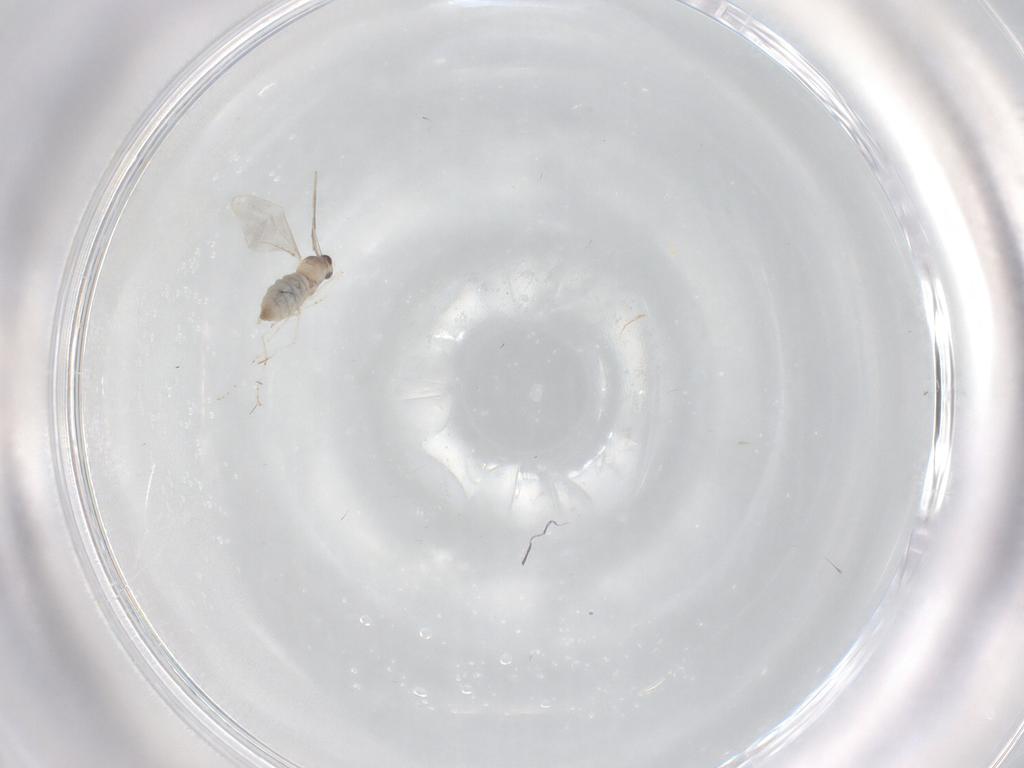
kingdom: Animalia
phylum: Arthropoda
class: Insecta
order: Diptera
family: Cecidomyiidae
